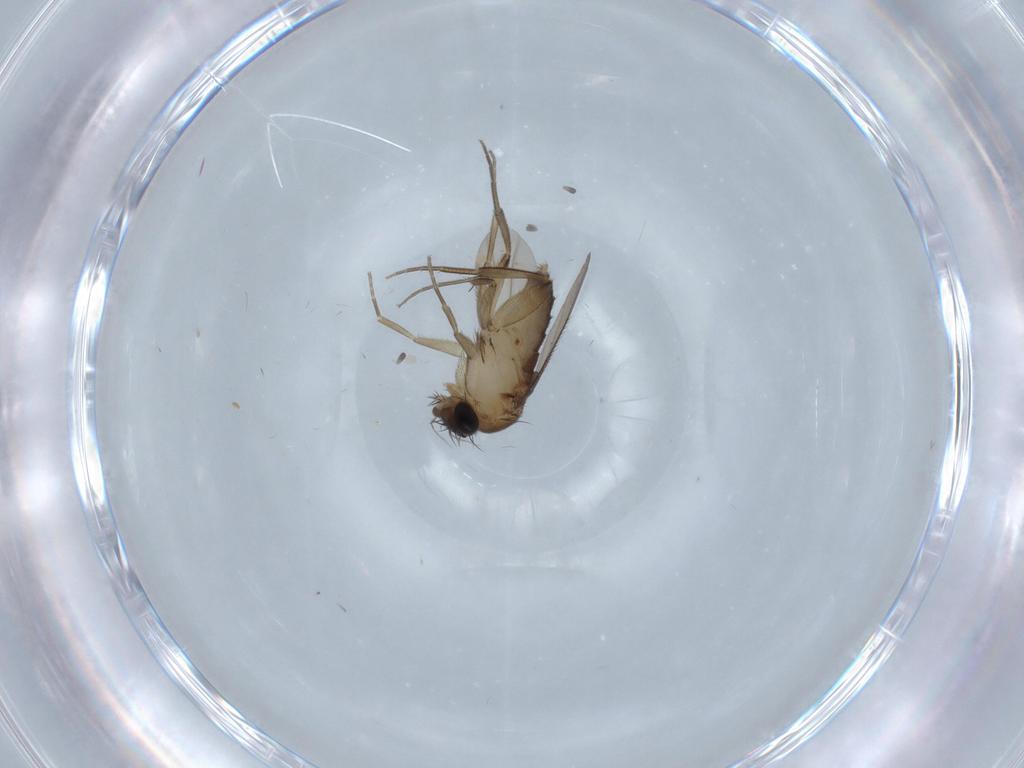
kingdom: Animalia
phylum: Arthropoda
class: Insecta
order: Diptera
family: Phoridae
